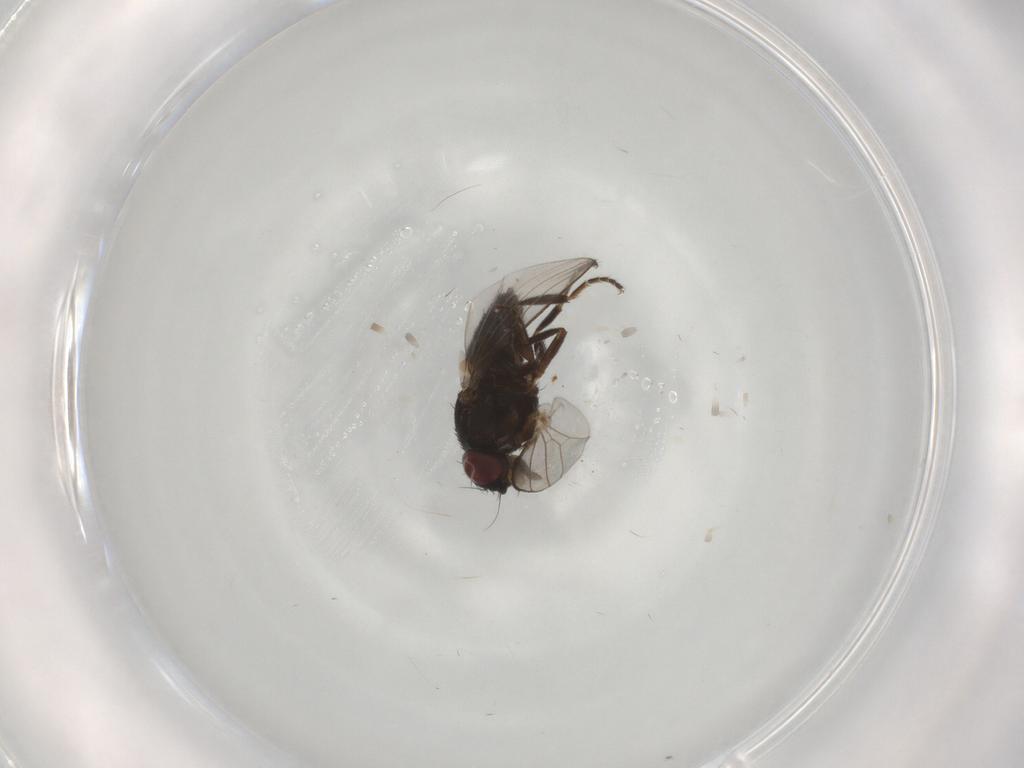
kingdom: Animalia
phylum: Arthropoda
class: Insecta
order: Diptera
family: Milichiidae
